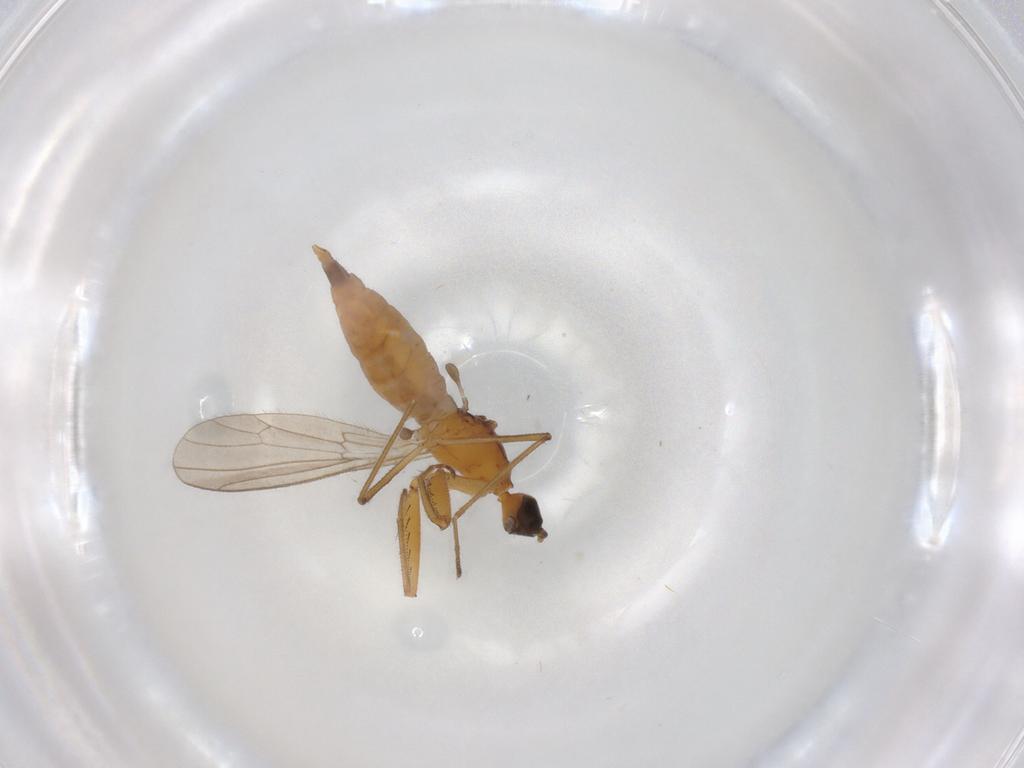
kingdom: Animalia
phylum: Arthropoda
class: Insecta
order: Diptera
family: Empididae
